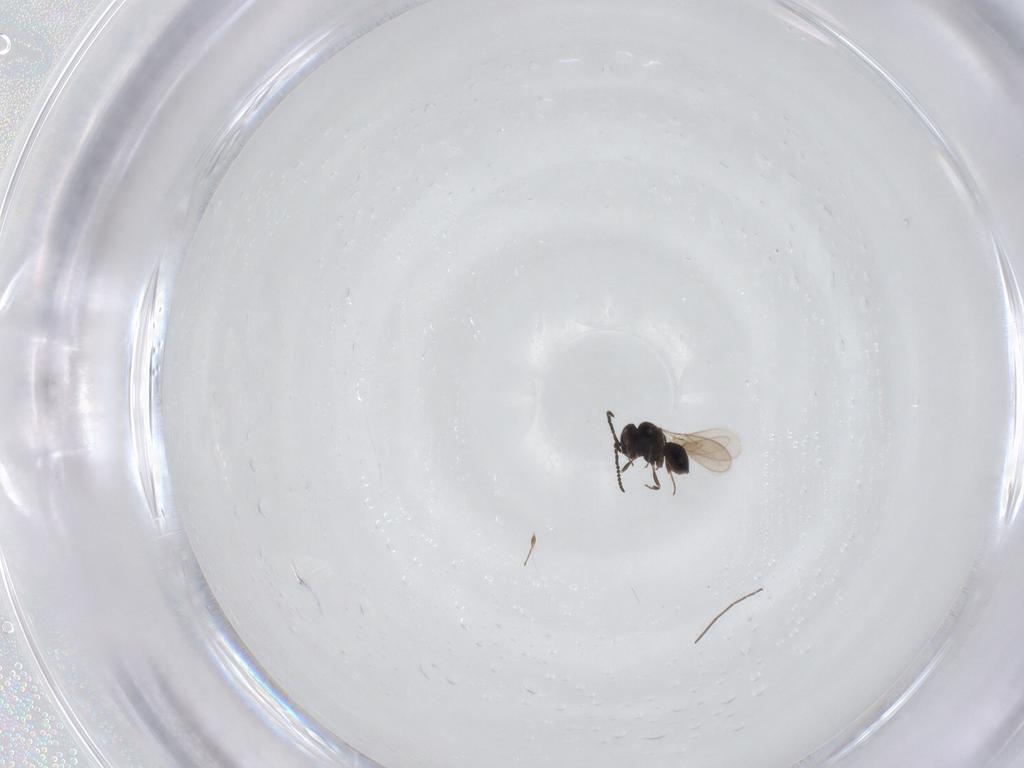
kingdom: Animalia
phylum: Arthropoda
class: Insecta
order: Hymenoptera
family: Scelionidae
